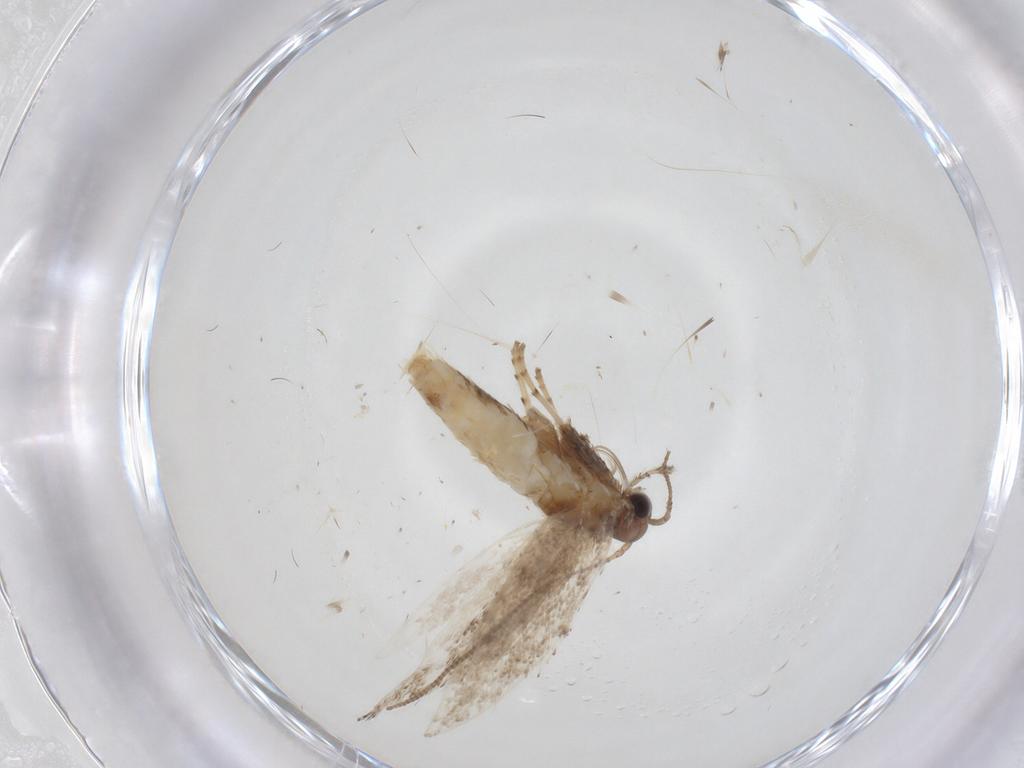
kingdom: Animalia
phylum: Arthropoda
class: Insecta
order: Lepidoptera
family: Gracillariidae
